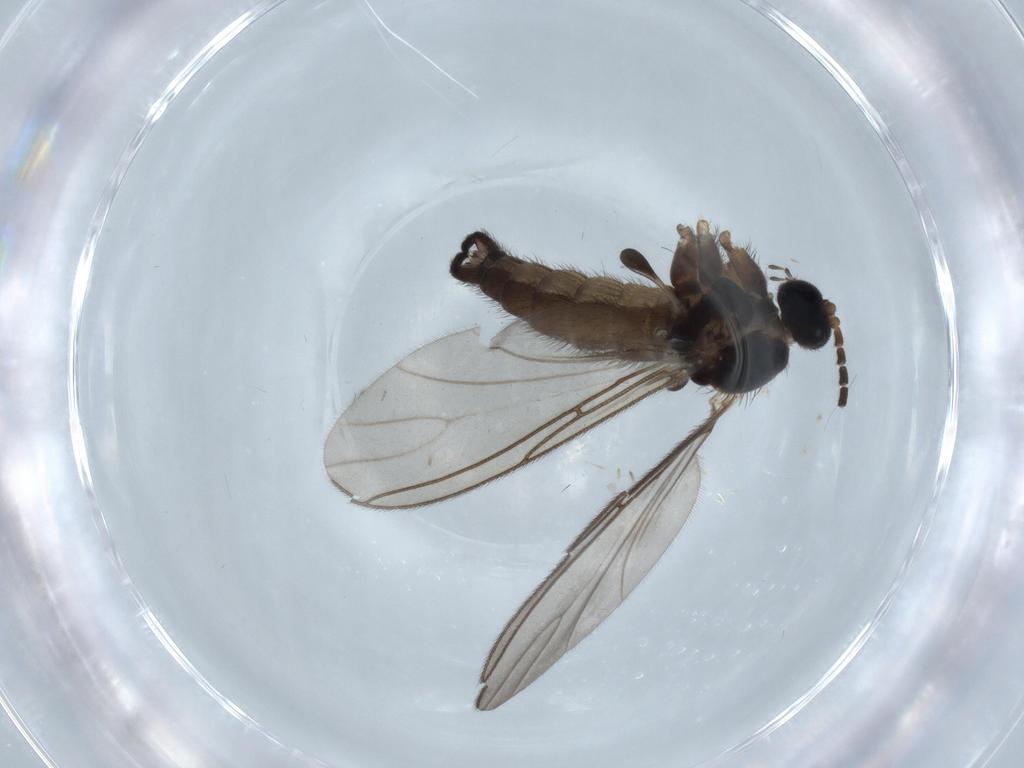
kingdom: Animalia
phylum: Arthropoda
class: Insecta
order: Diptera
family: Sciaridae
